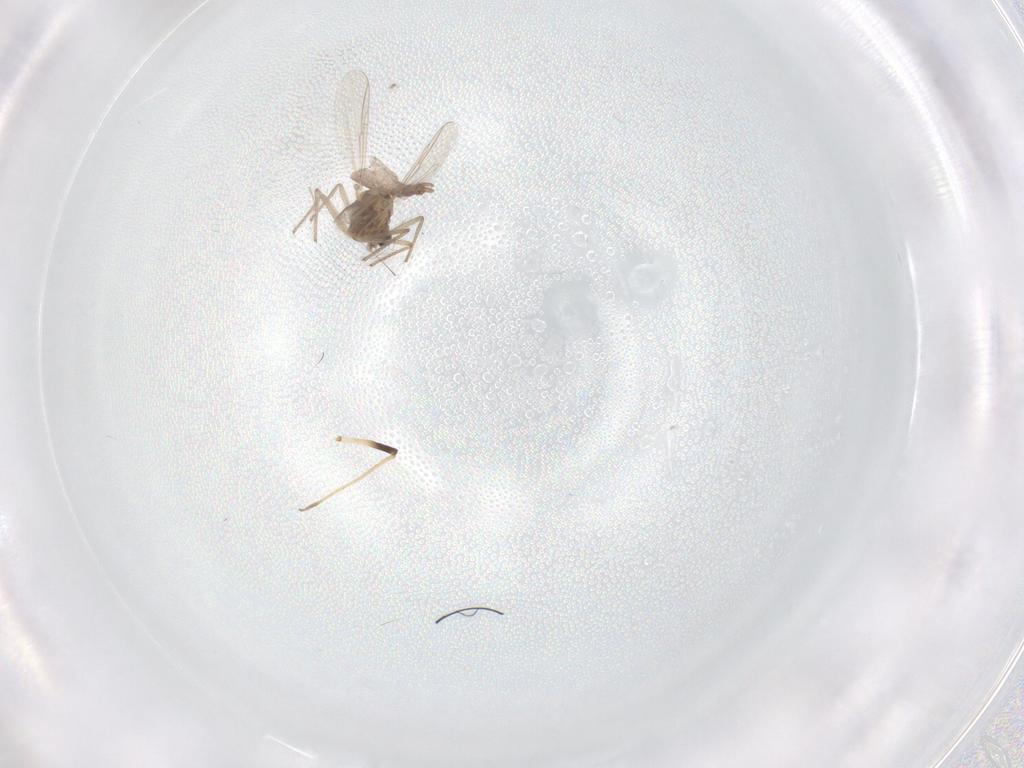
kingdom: Animalia
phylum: Arthropoda
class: Insecta
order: Diptera
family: Chironomidae
